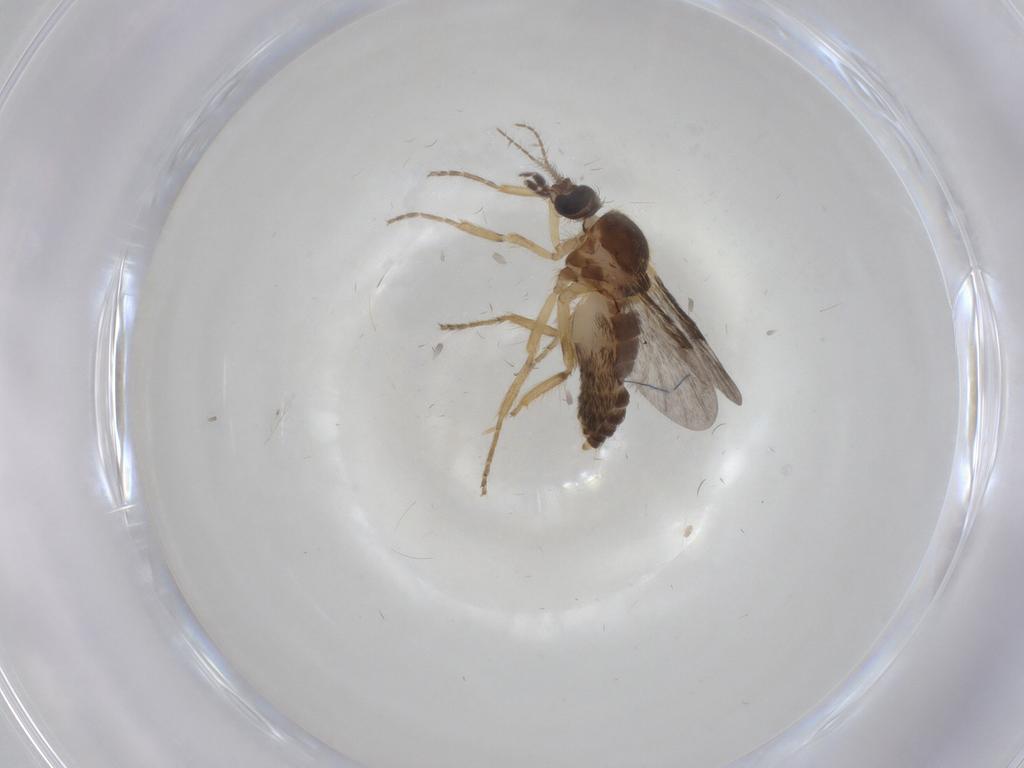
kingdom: Animalia
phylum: Arthropoda
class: Insecta
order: Diptera
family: Ceratopogonidae
